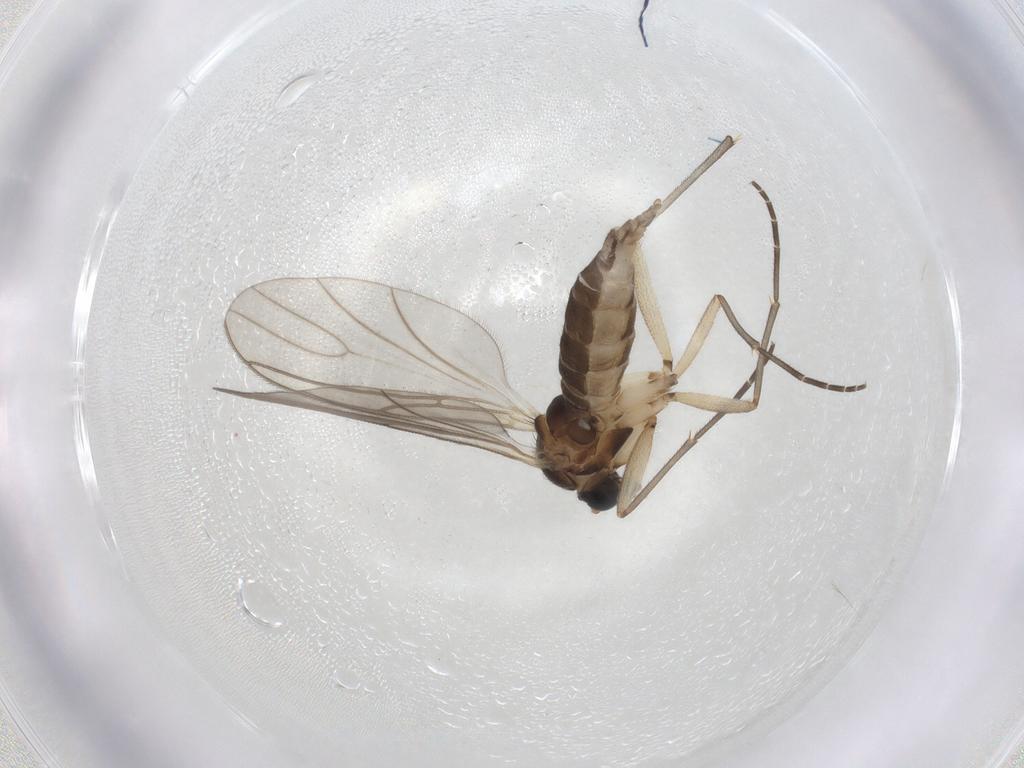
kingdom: Animalia
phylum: Arthropoda
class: Insecta
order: Diptera
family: Sciaridae
